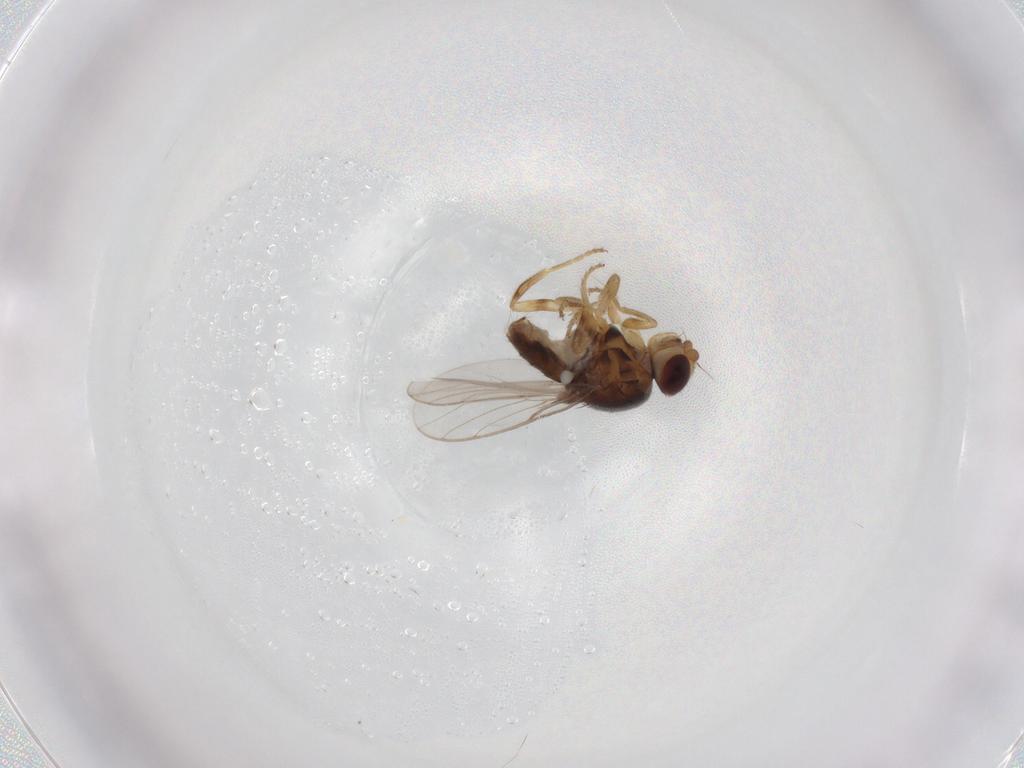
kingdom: Animalia
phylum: Arthropoda
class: Insecta
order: Diptera
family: Chloropidae
